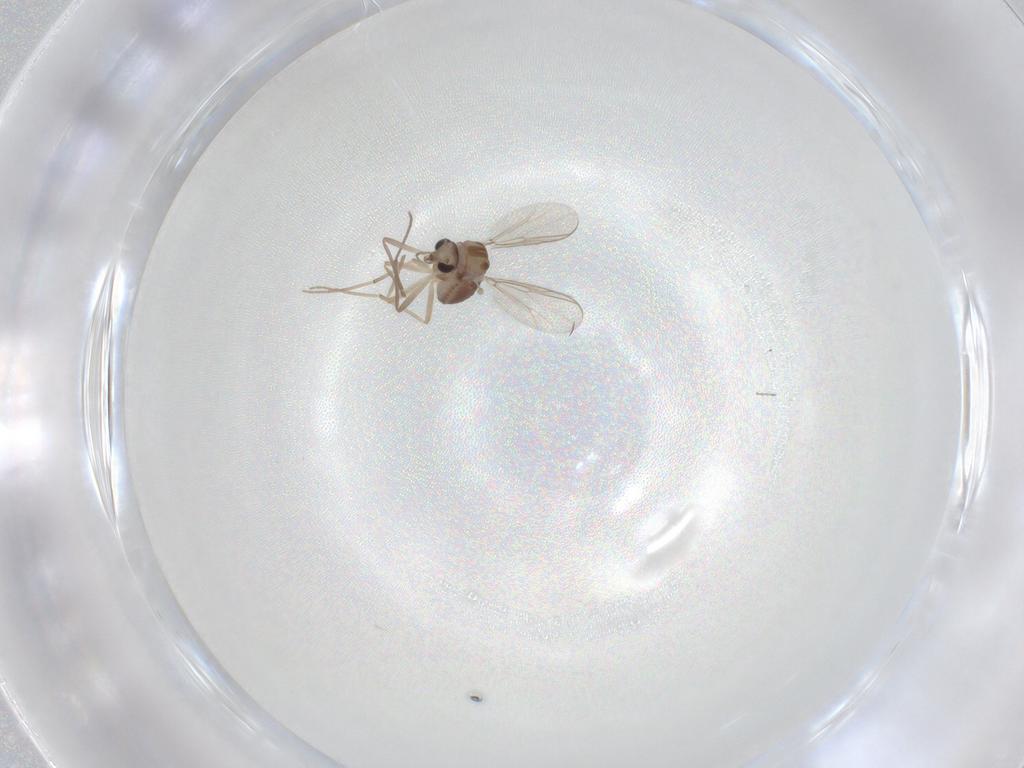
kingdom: Animalia
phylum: Arthropoda
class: Insecta
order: Diptera
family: Chironomidae
